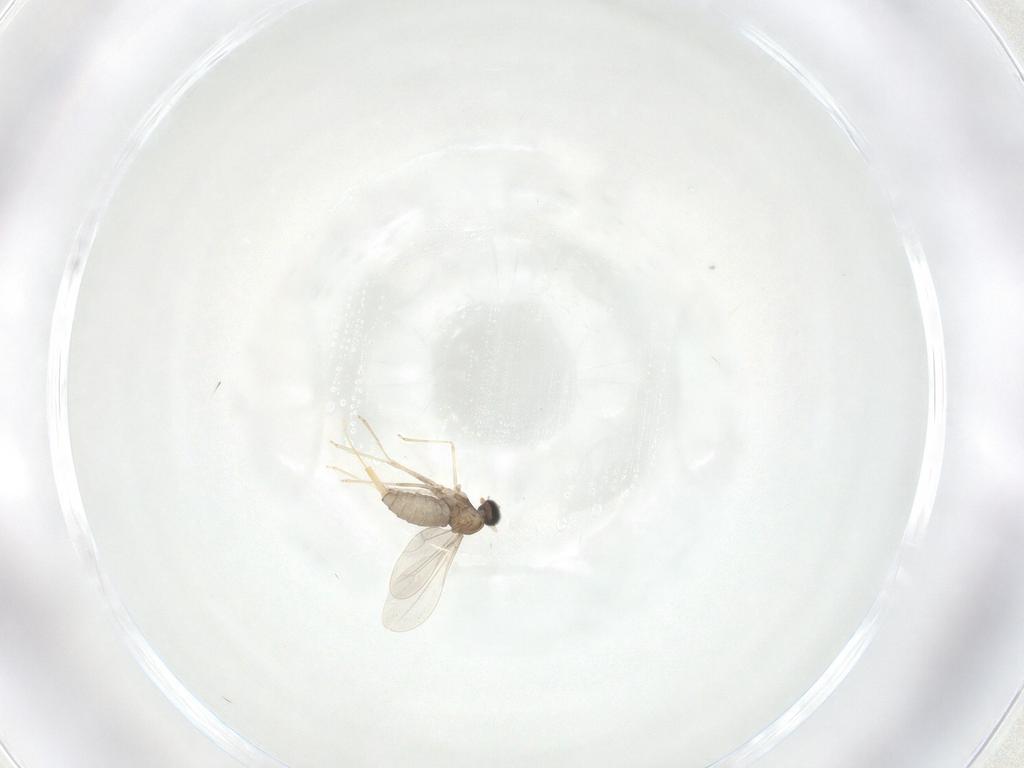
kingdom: Animalia
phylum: Arthropoda
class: Insecta
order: Diptera
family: Cecidomyiidae
